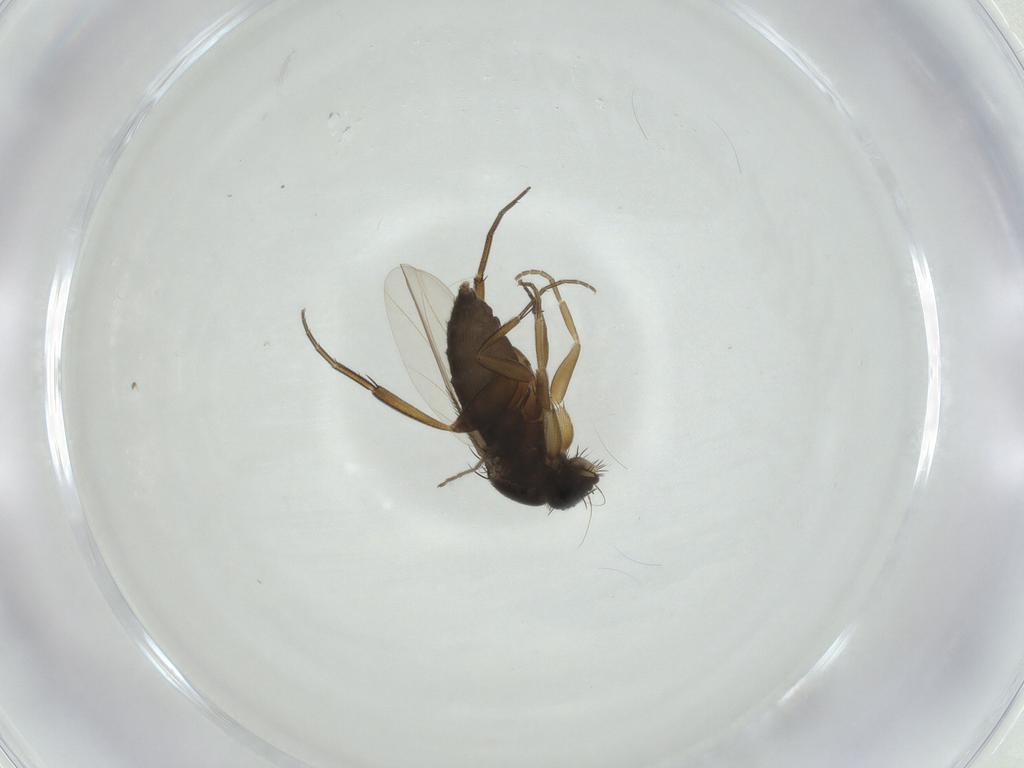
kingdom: Animalia
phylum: Arthropoda
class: Insecta
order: Diptera
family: Phoridae
